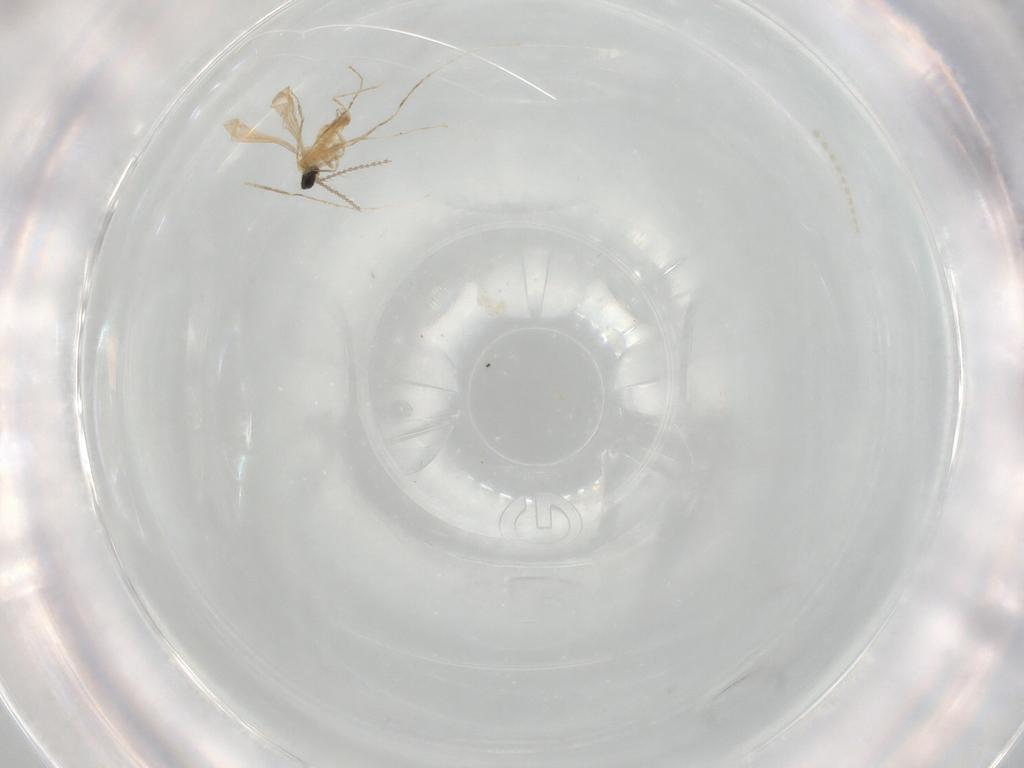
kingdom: Animalia
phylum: Arthropoda
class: Insecta
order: Diptera
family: Cecidomyiidae
